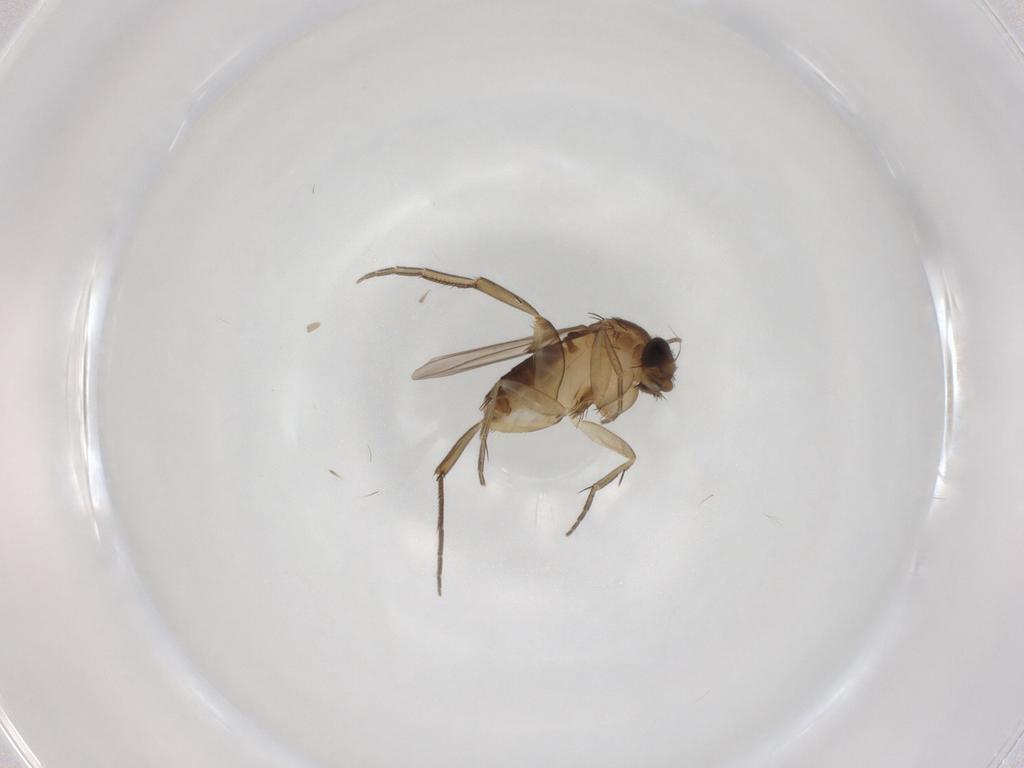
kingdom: Animalia
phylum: Arthropoda
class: Insecta
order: Diptera
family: Phoridae
